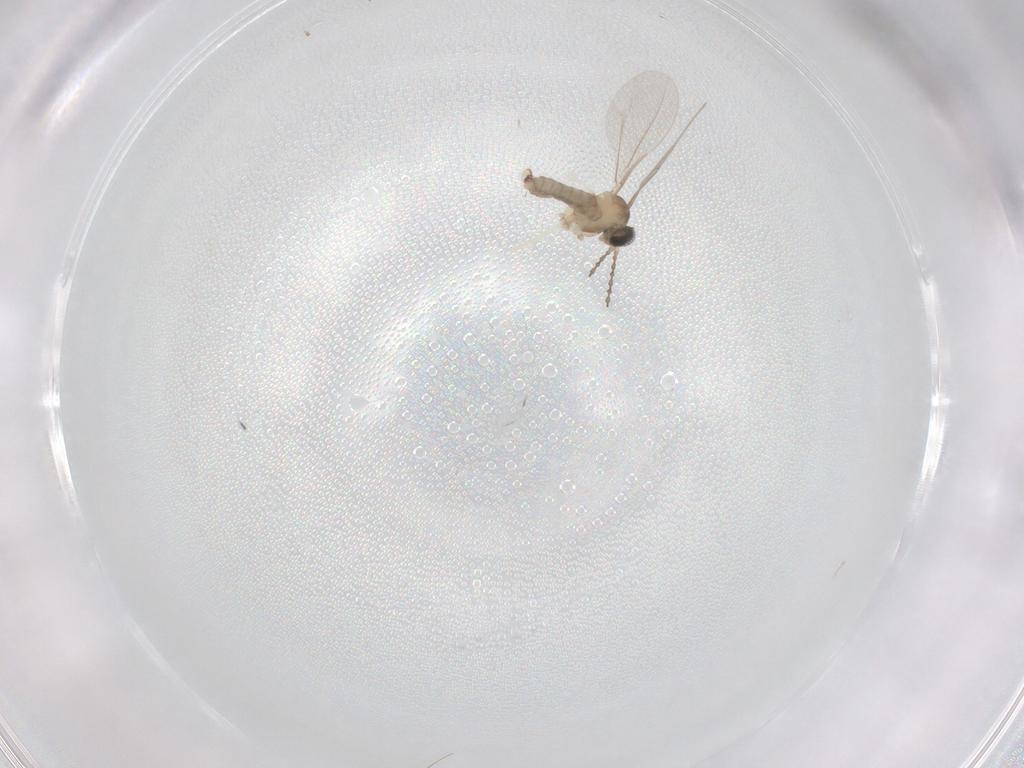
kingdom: Animalia
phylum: Arthropoda
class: Insecta
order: Diptera
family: Cecidomyiidae
